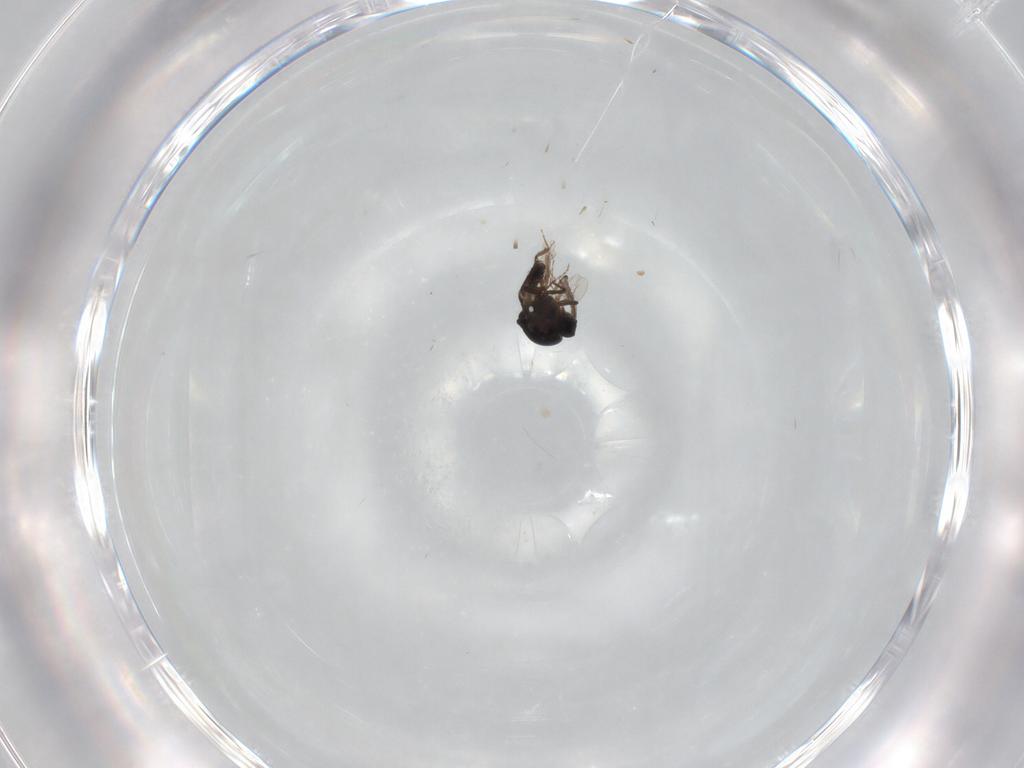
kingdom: Animalia
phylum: Arthropoda
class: Insecta
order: Diptera
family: Ceratopogonidae
